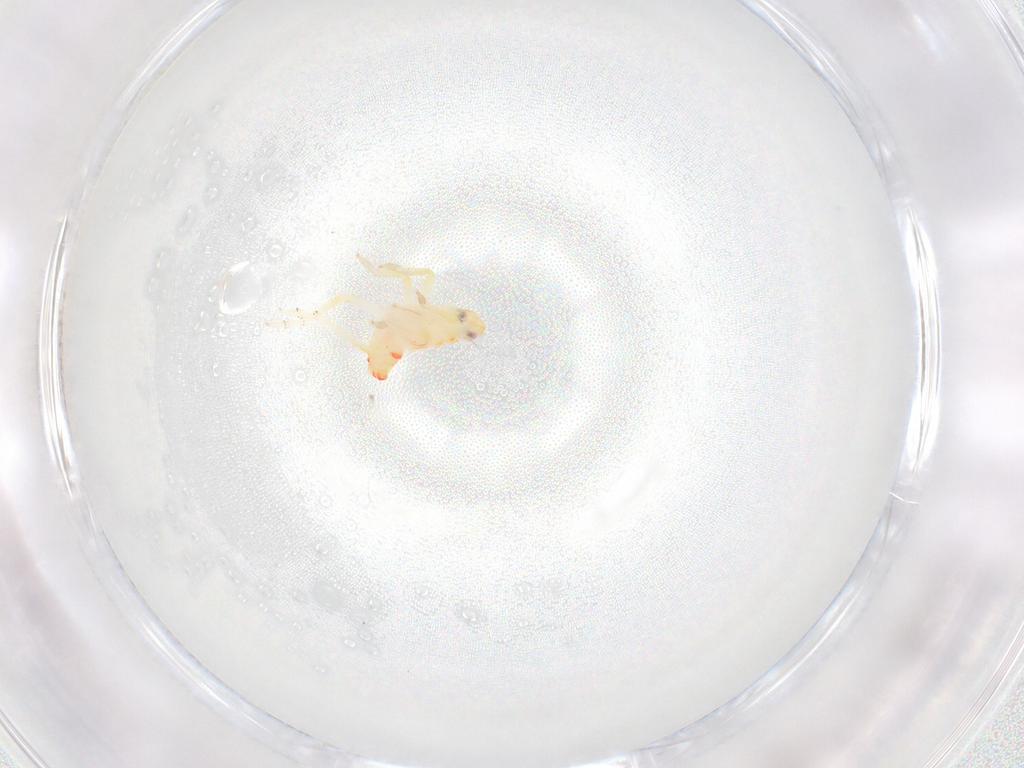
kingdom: Animalia
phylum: Arthropoda
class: Insecta
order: Hemiptera
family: Tropiduchidae
